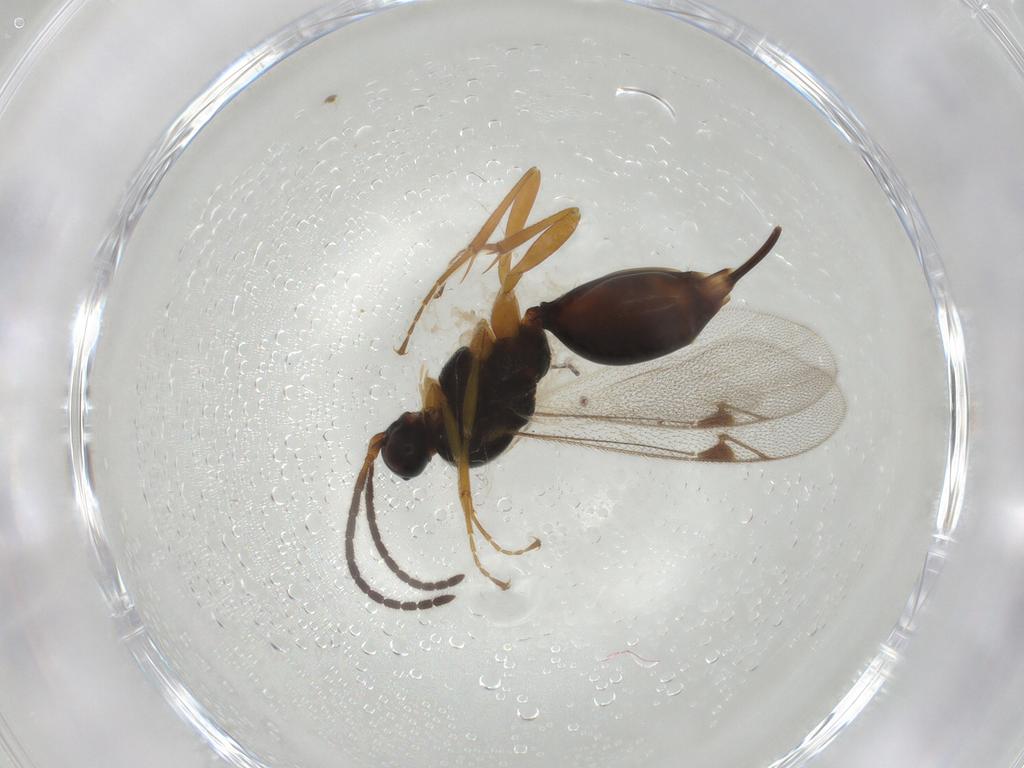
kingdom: Animalia
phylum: Arthropoda
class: Insecta
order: Hymenoptera
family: Proctotrupidae
